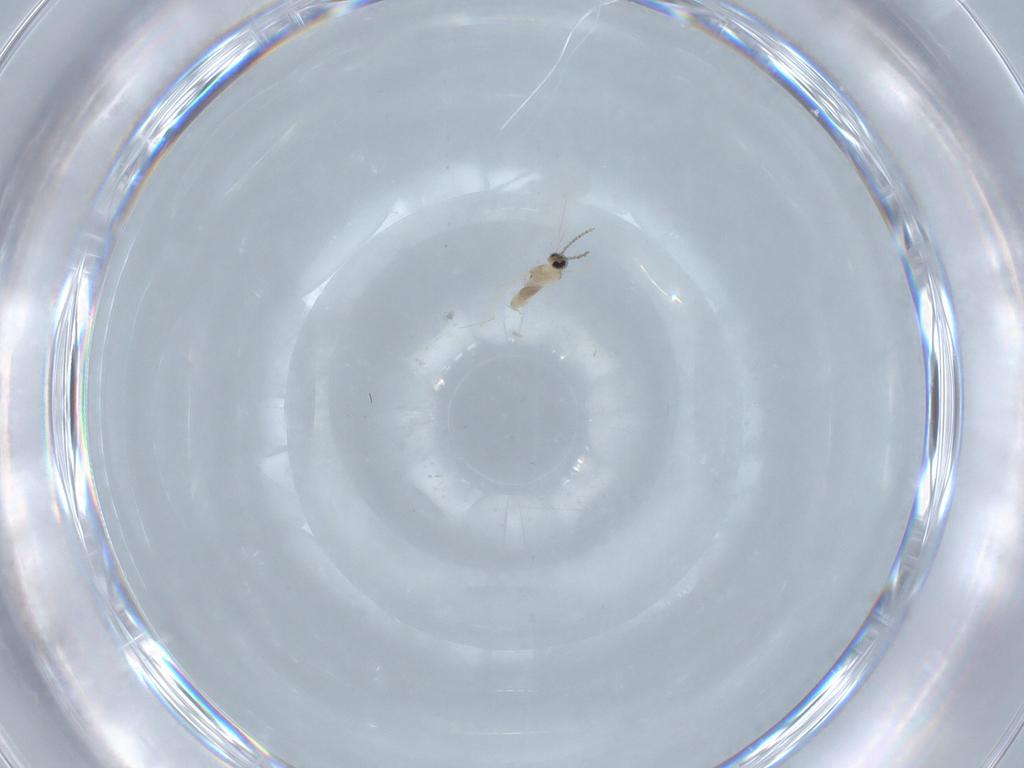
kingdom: Animalia
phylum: Arthropoda
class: Insecta
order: Diptera
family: Cecidomyiidae
